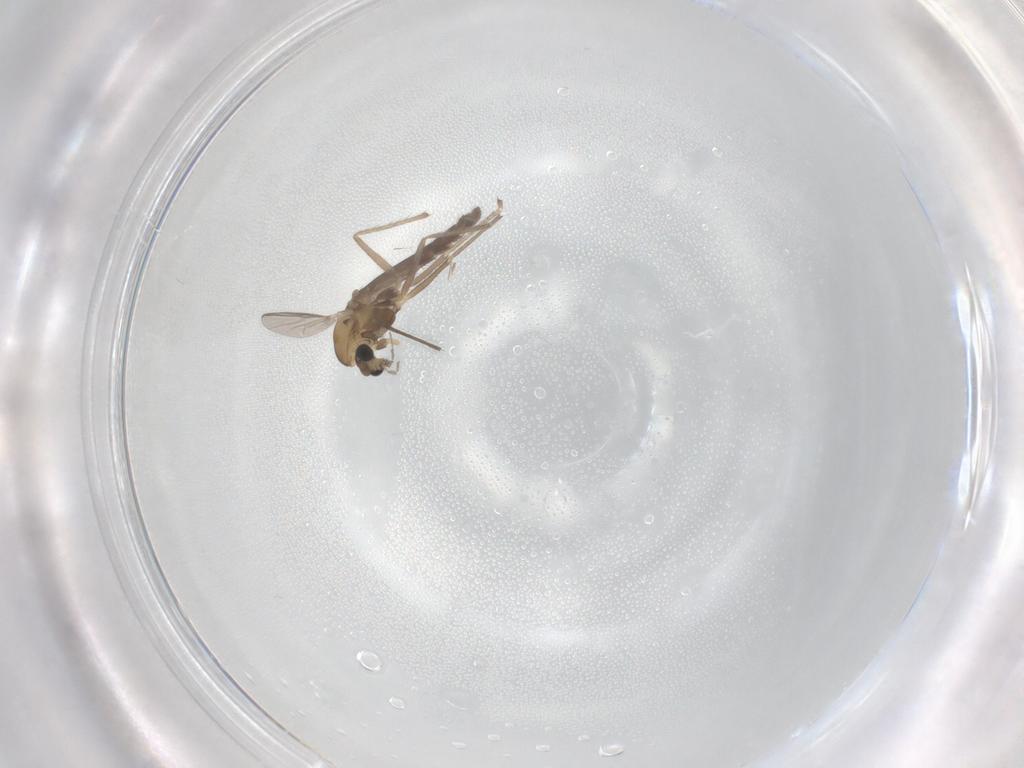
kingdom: Animalia
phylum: Arthropoda
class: Insecta
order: Diptera
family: Chironomidae
